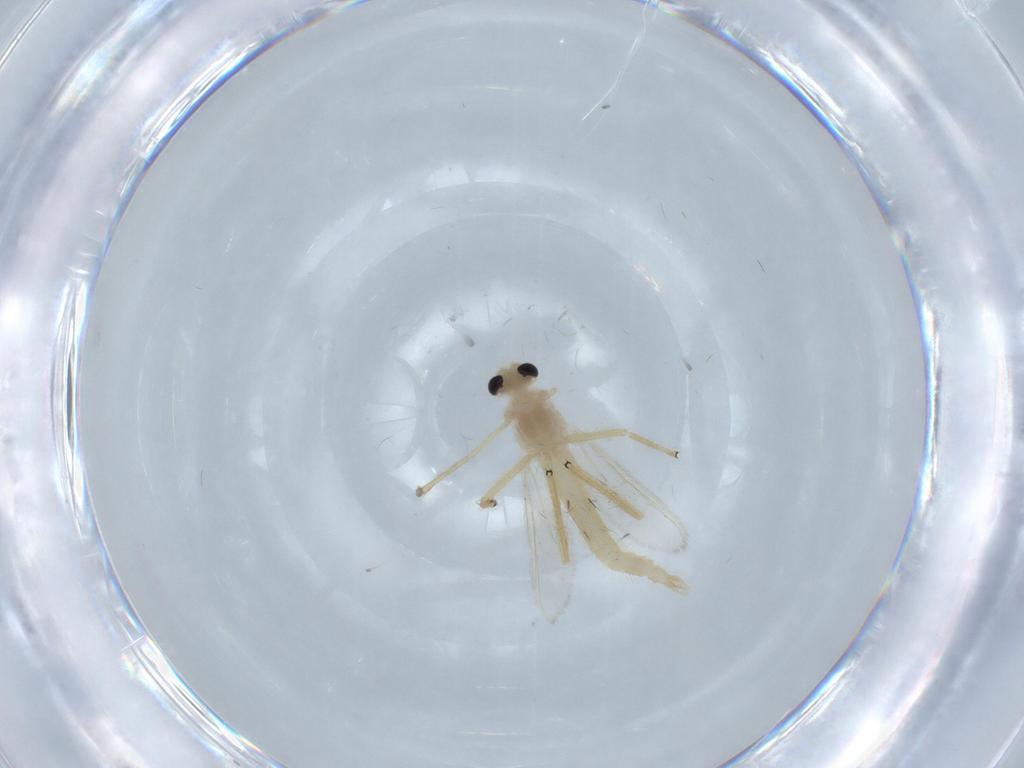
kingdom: Animalia
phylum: Arthropoda
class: Insecta
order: Diptera
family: Chironomidae
